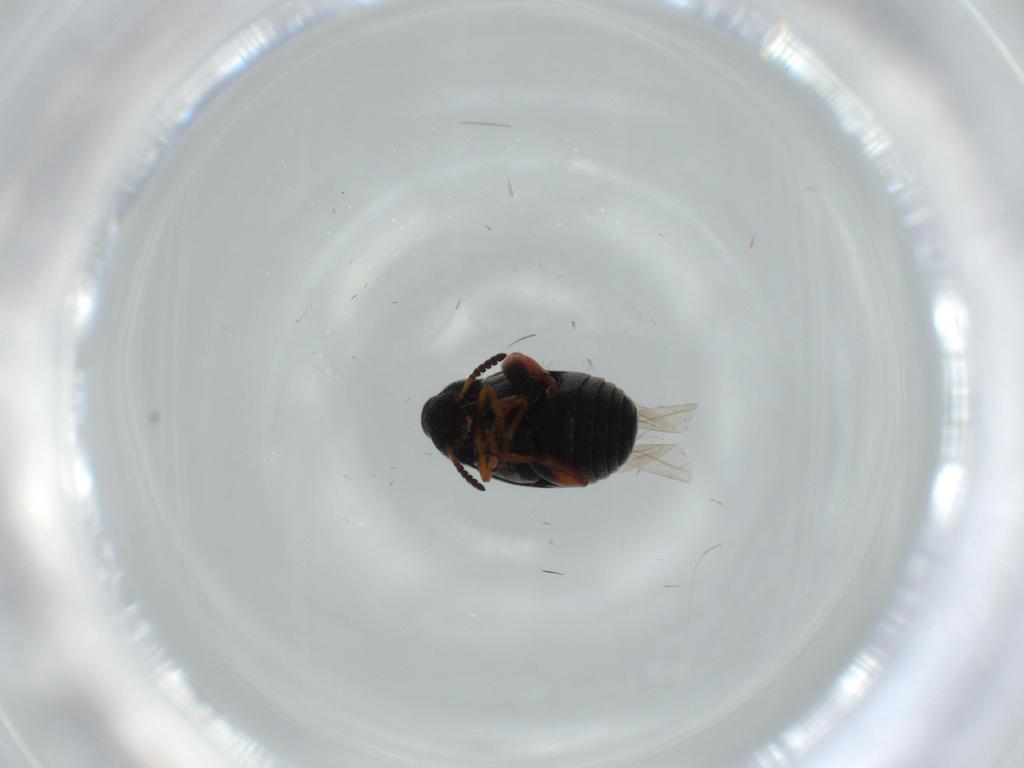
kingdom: Animalia
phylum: Arthropoda
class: Insecta
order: Coleoptera
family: Chrysomelidae
